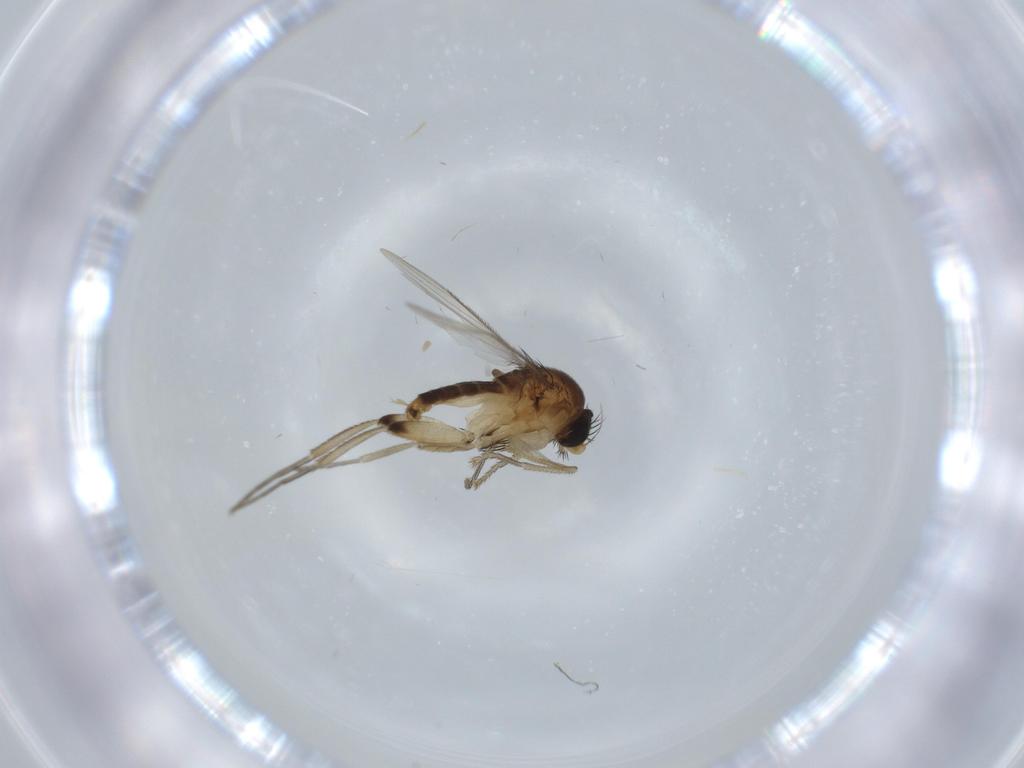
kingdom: Animalia
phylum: Arthropoda
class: Insecta
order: Diptera
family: Phoridae
